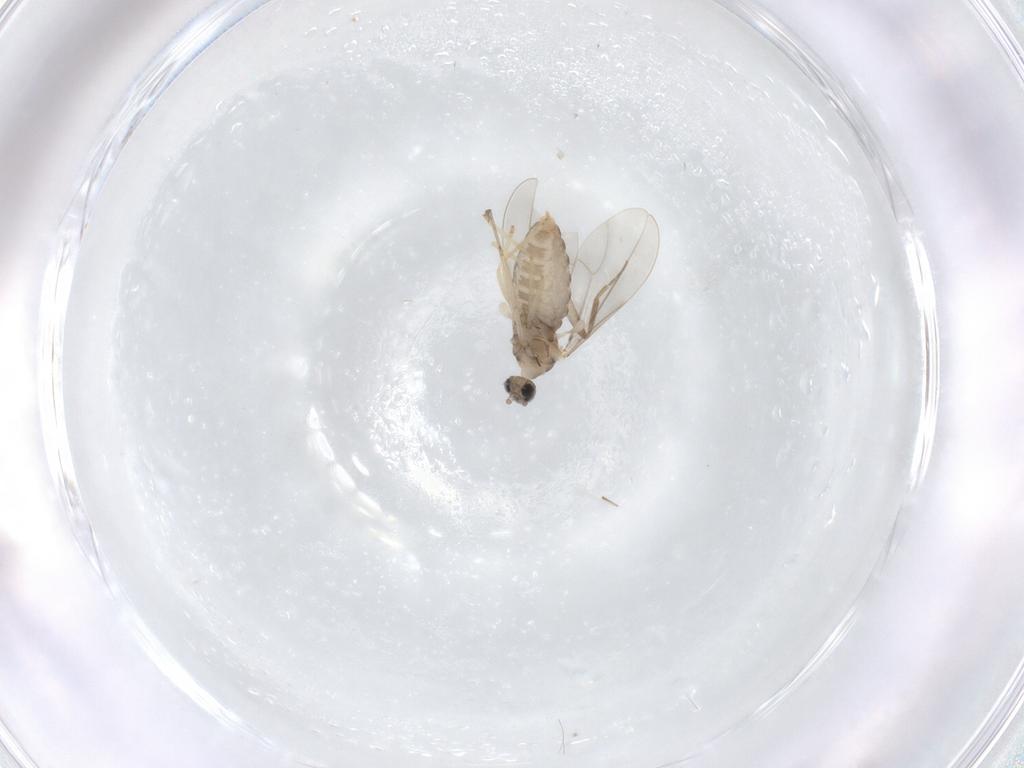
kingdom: Animalia
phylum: Arthropoda
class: Insecta
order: Diptera
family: Cecidomyiidae
